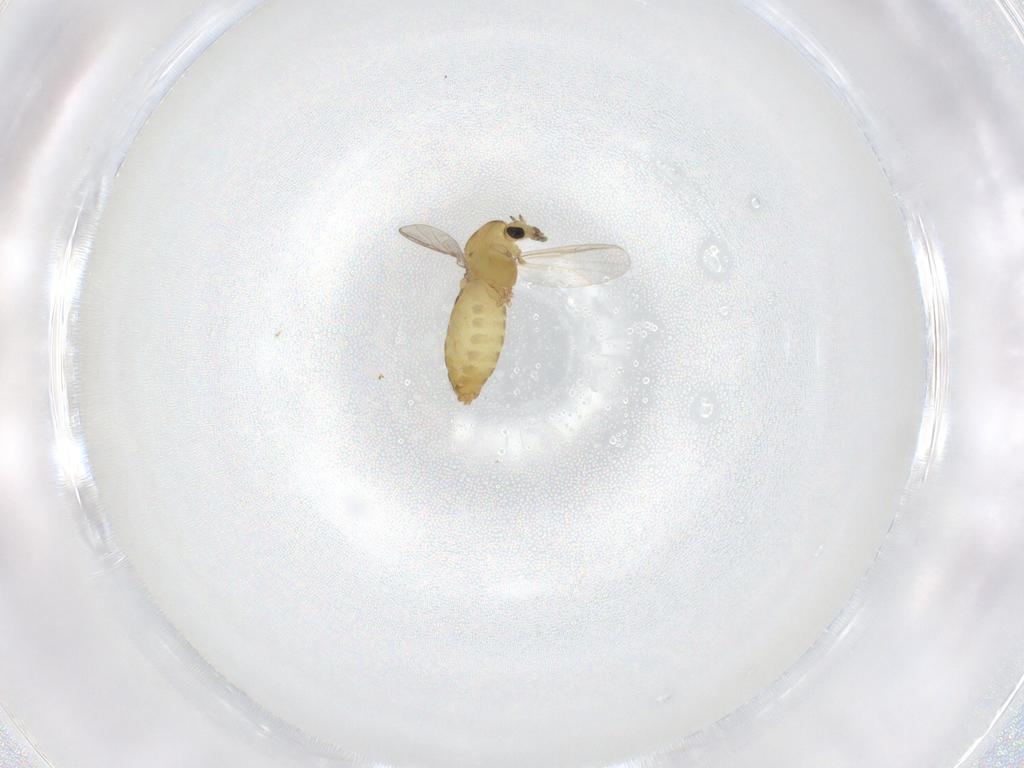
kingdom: Animalia
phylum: Arthropoda
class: Insecta
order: Diptera
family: Chironomidae
